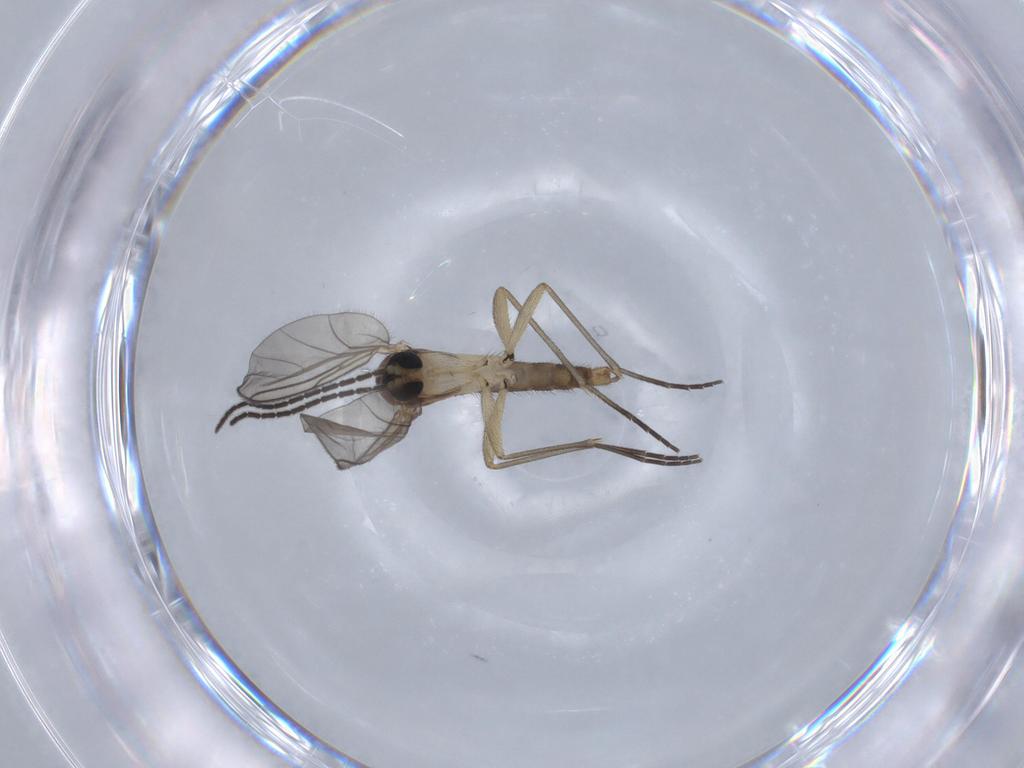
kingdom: Animalia
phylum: Arthropoda
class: Insecta
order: Diptera
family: Sciaridae
